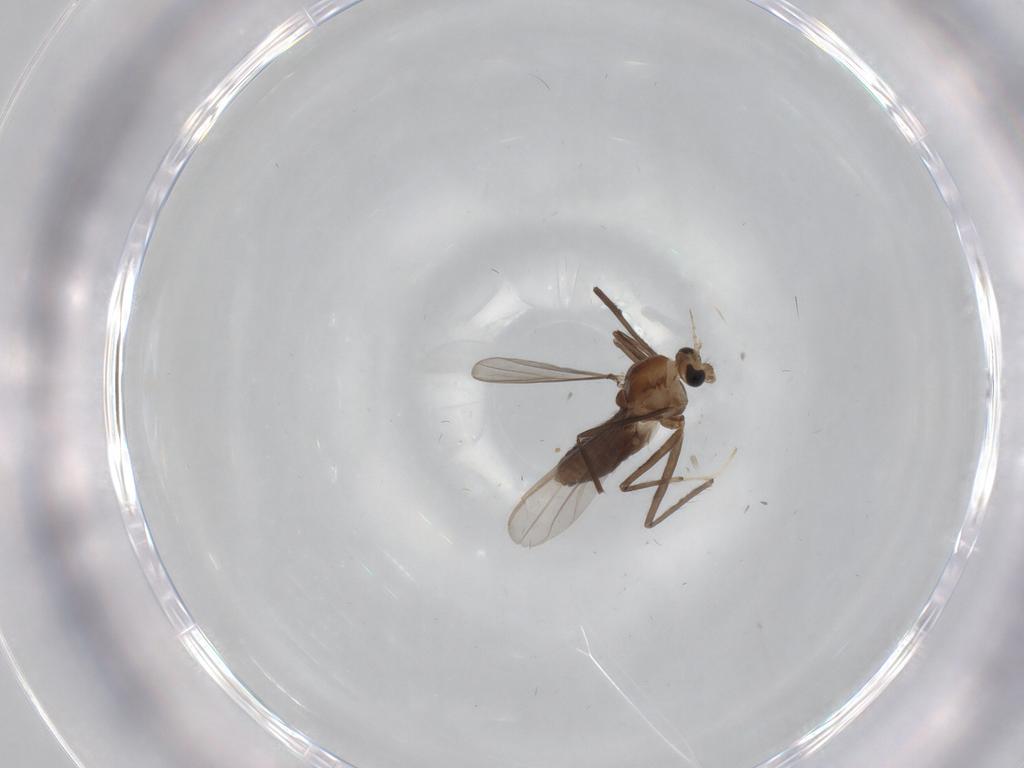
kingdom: Animalia
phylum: Arthropoda
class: Insecta
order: Diptera
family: Chironomidae
